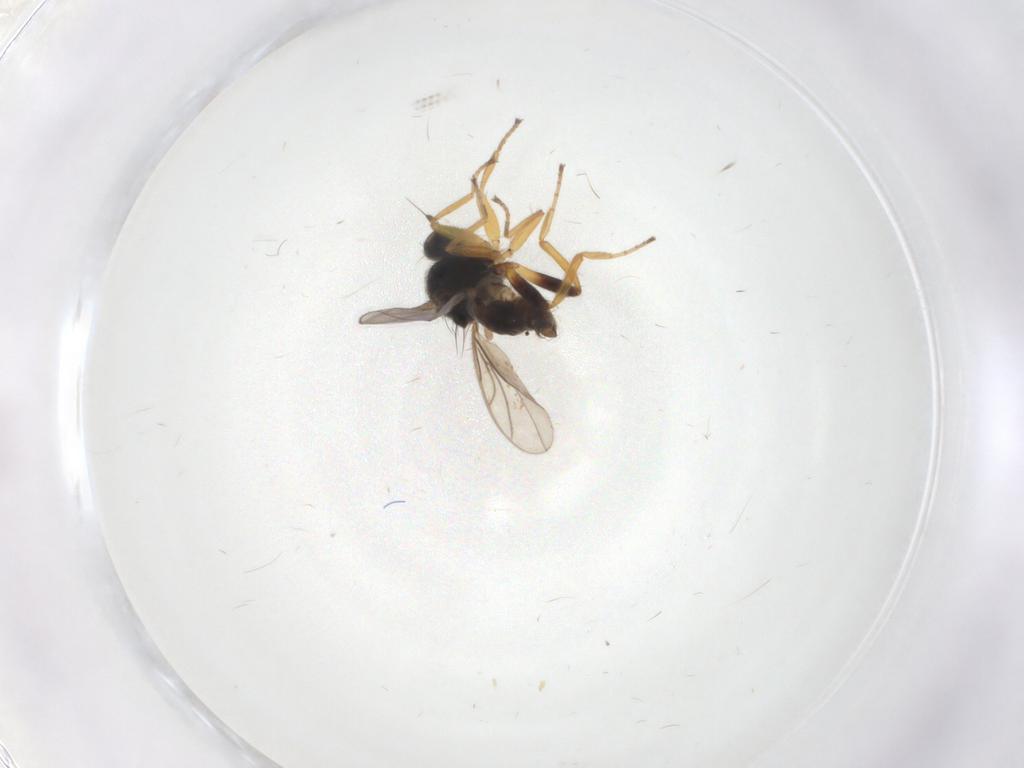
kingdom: Animalia
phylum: Arthropoda
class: Insecta
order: Diptera
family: Hybotidae
